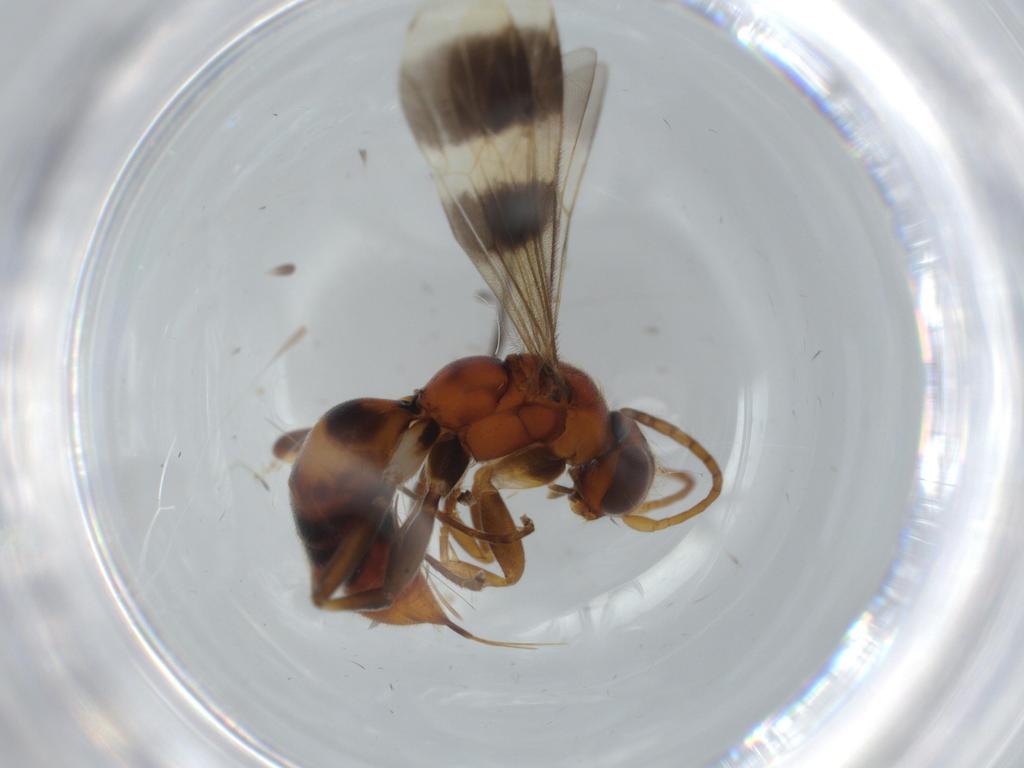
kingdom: Animalia
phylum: Arthropoda
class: Insecta
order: Hymenoptera
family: Pompilidae
